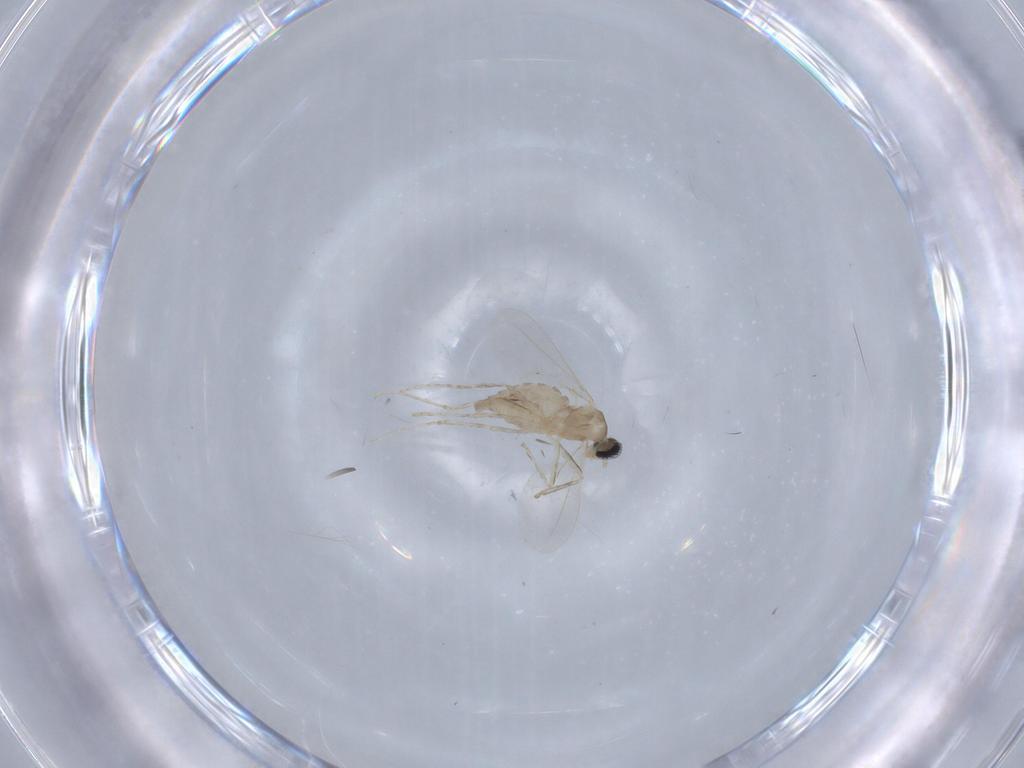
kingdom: Animalia
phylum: Arthropoda
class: Insecta
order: Diptera
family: Cecidomyiidae
